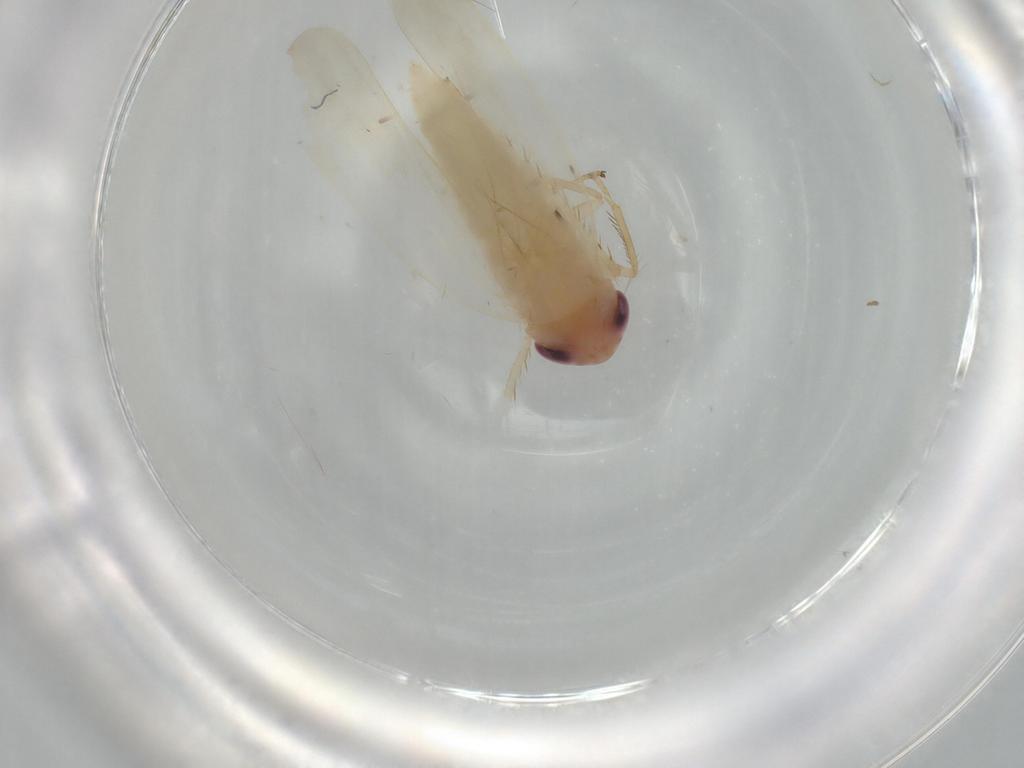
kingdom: Animalia
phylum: Arthropoda
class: Insecta
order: Hemiptera
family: Cicadellidae
